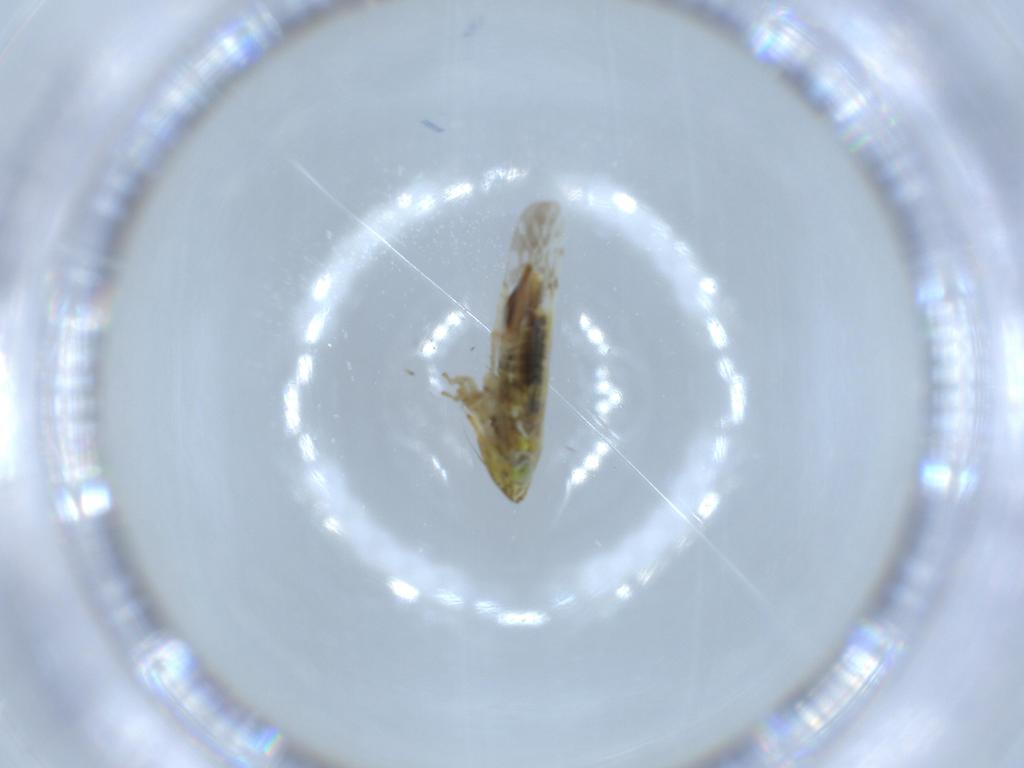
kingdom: Animalia
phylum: Arthropoda
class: Insecta
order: Hemiptera
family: Cicadellidae
